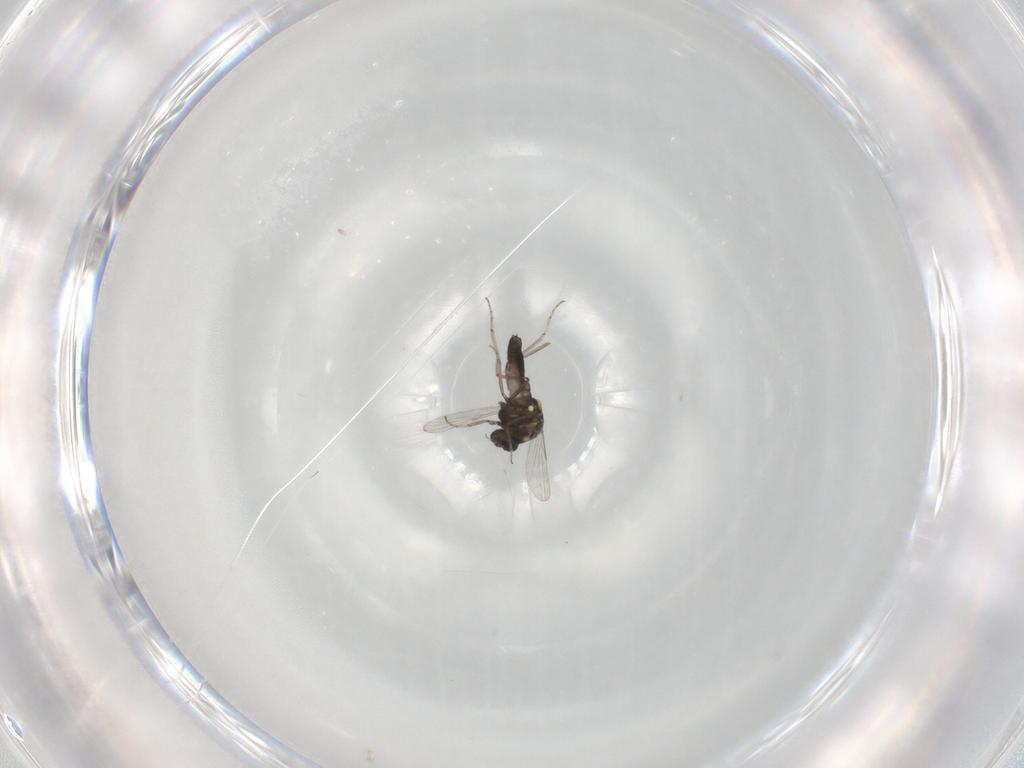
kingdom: Animalia
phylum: Arthropoda
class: Insecta
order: Diptera
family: Ceratopogonidae
